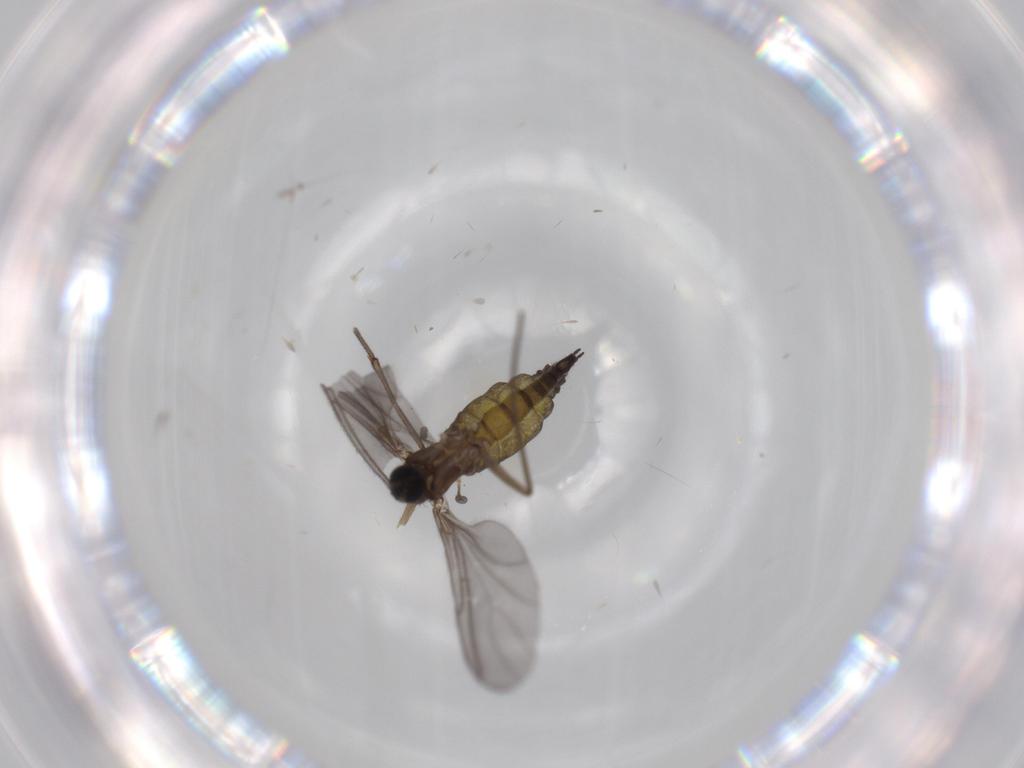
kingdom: Animalia
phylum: Arthropoda
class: Insecta
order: Diptera
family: Sciaridae
